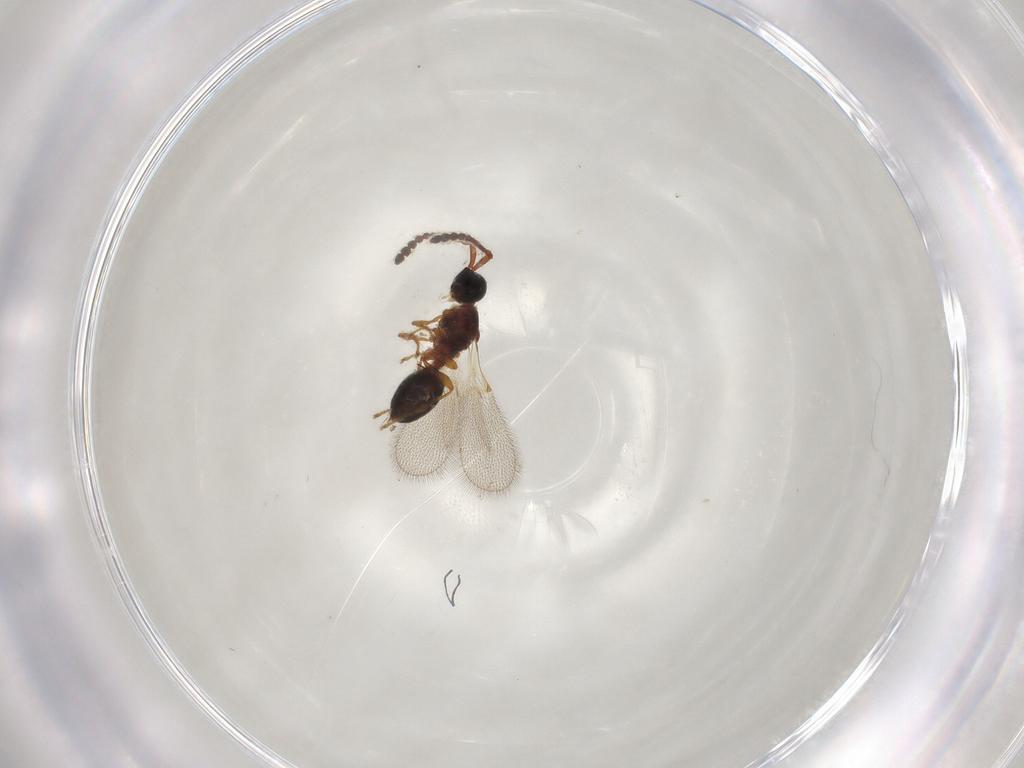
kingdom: Animalia
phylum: Arthropoda
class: Insecta
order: Hymenoptera
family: Diapriidae
